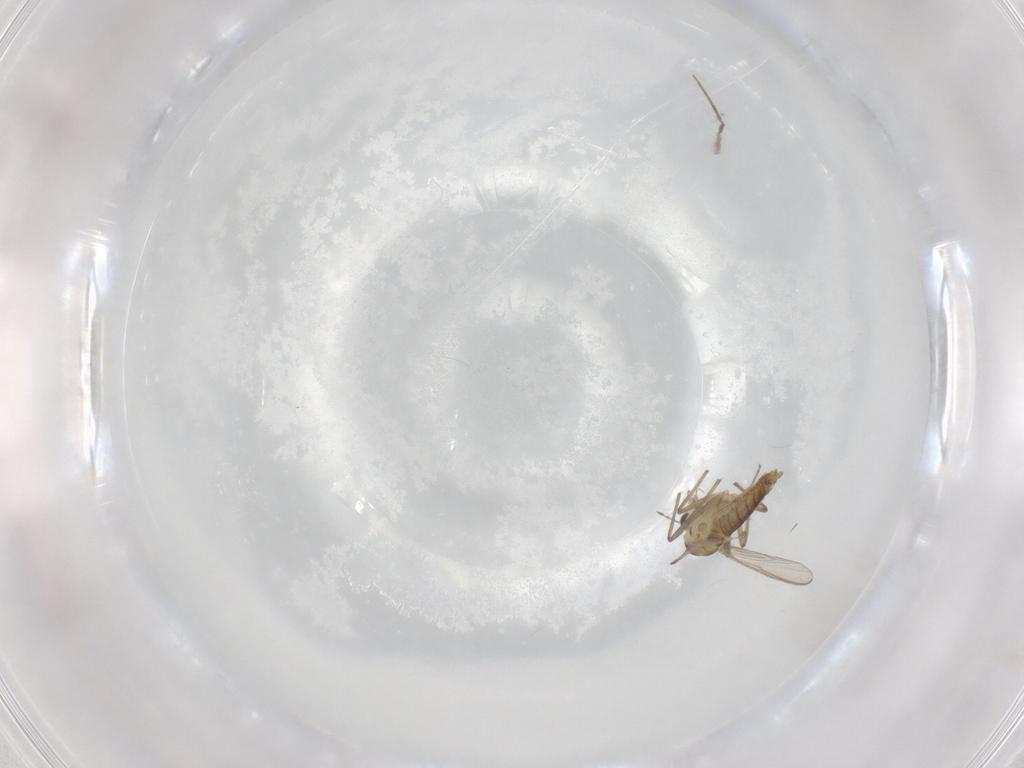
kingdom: Animalia
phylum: Arthropoda
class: Insecta
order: Diptera
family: Chironomidae
